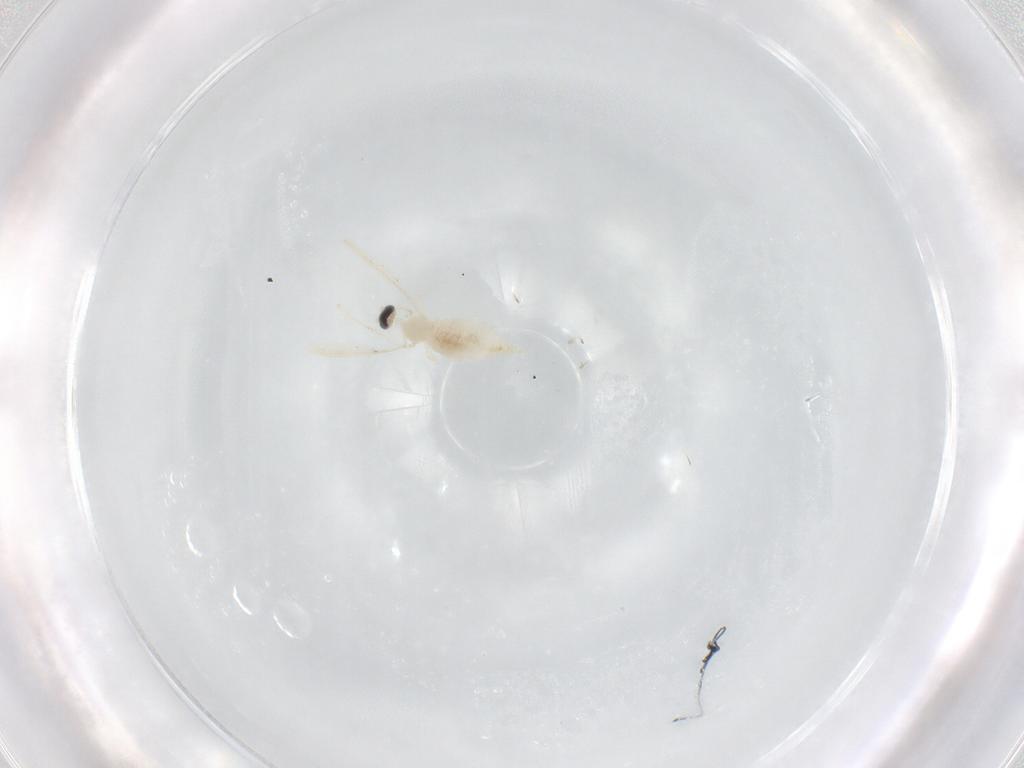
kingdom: Animalia
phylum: Arthropoda
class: Insecta
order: Diptera
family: Cecidomyiidae
